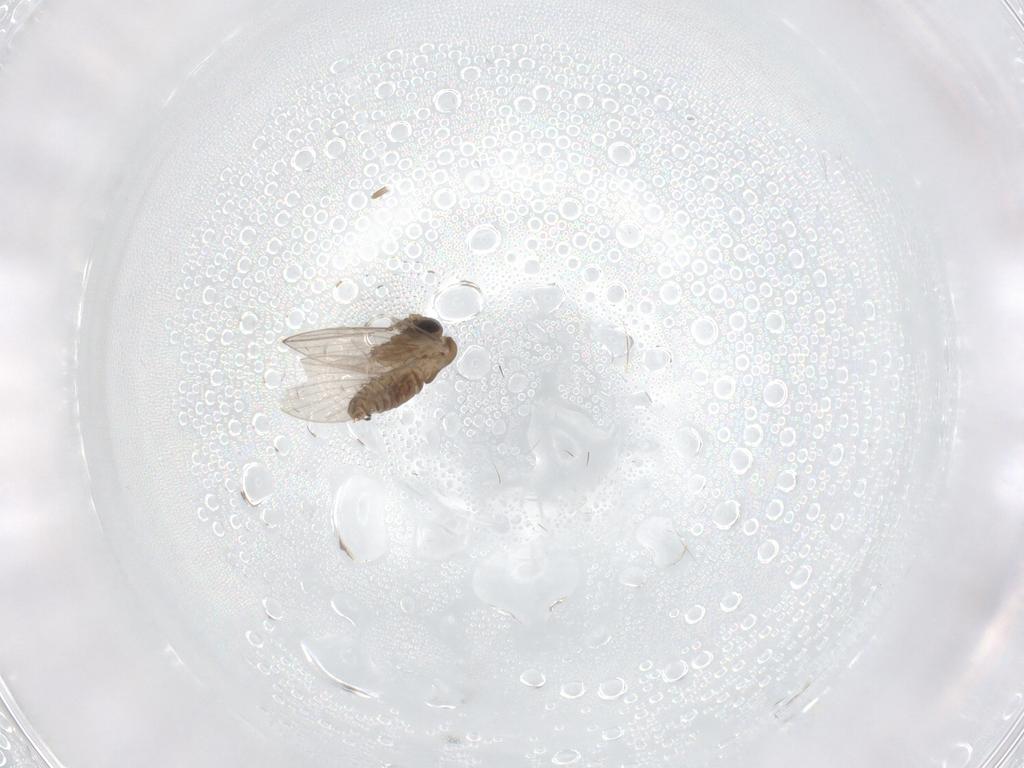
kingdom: Animalia
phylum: Arthropoda
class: Insecta
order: Diptera
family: Psychodidae
